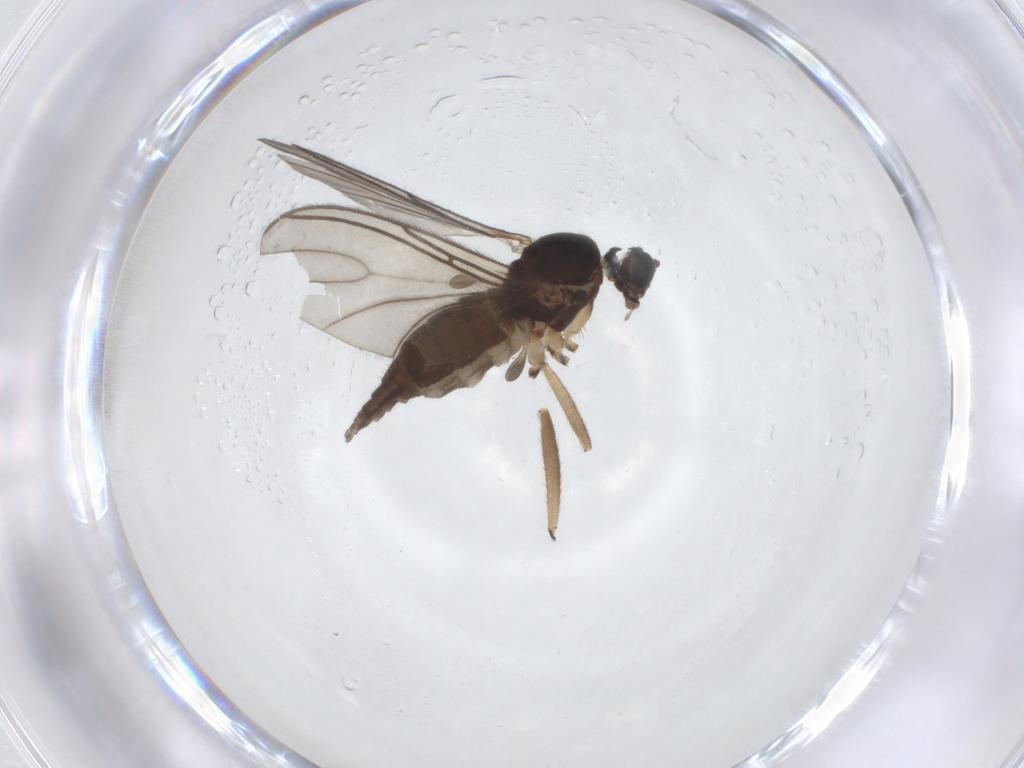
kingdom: Animalia
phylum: Arthropoda
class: Insecta
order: Diptera
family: Sciaridae
